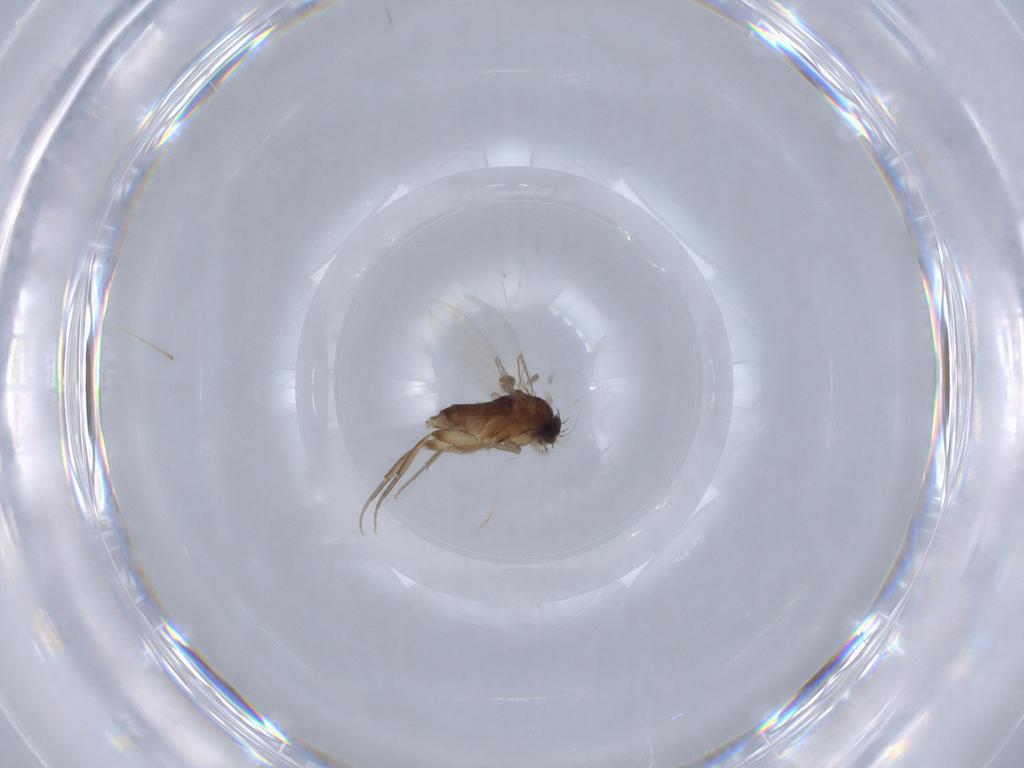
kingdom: Animalia
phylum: Arthropoda
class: Insecta
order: Diptera
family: Phoridae
